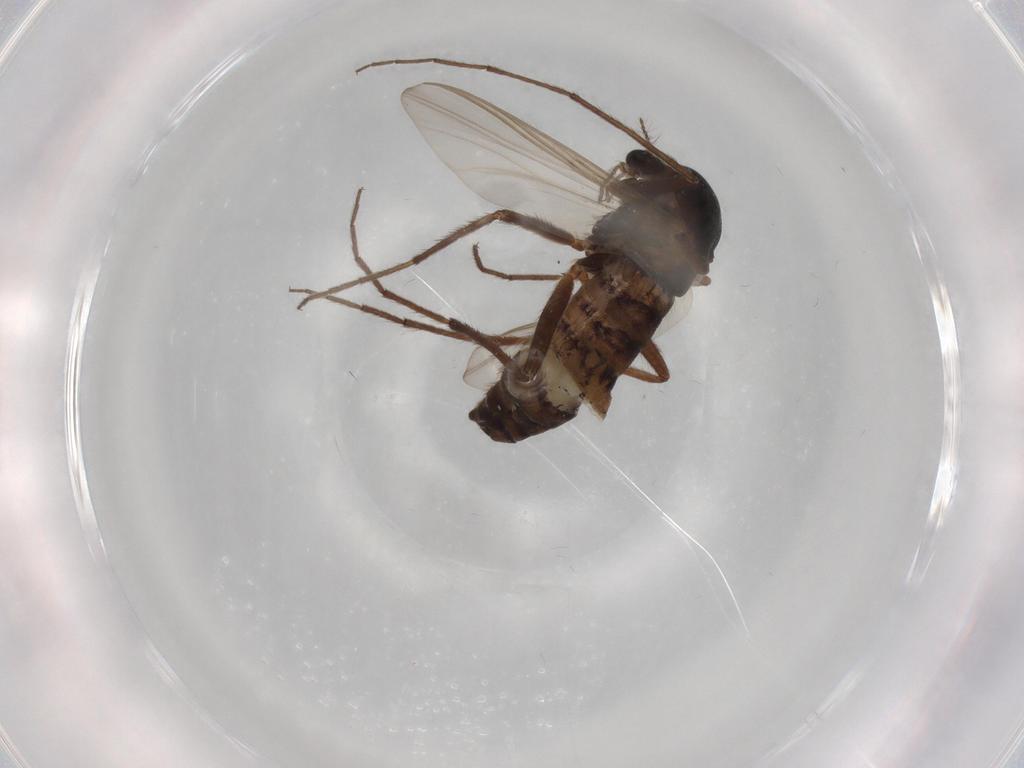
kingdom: Animalia
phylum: Arthropoda
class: Insecta
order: Diptera
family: Chironomidae
